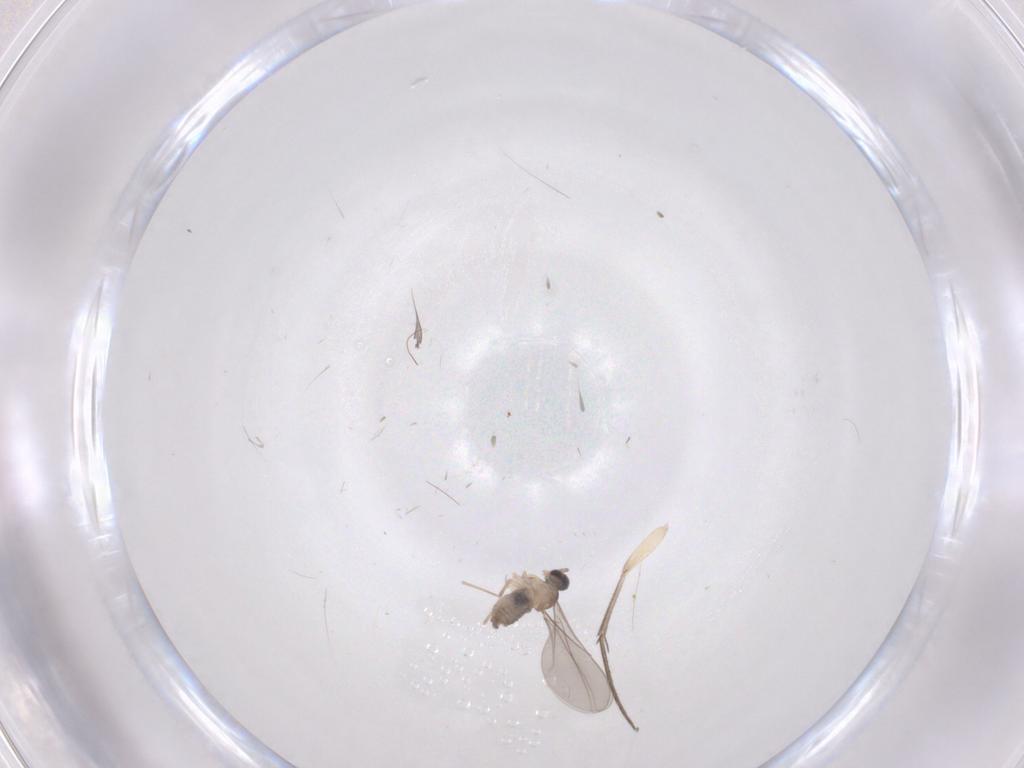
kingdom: Animalia
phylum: Arthropoda
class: Insecta
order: Diptera
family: Cecidomyiidae
